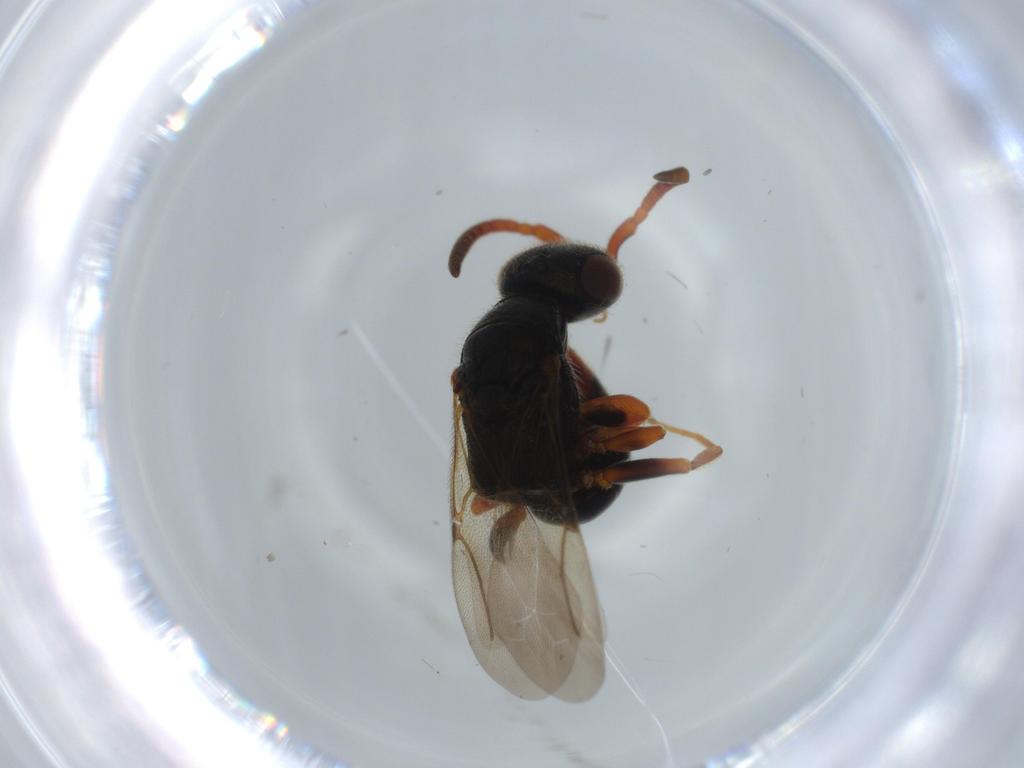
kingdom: Animalia
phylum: Arthropoda
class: Insecta
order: Hymenoptera
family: Bethylidae
